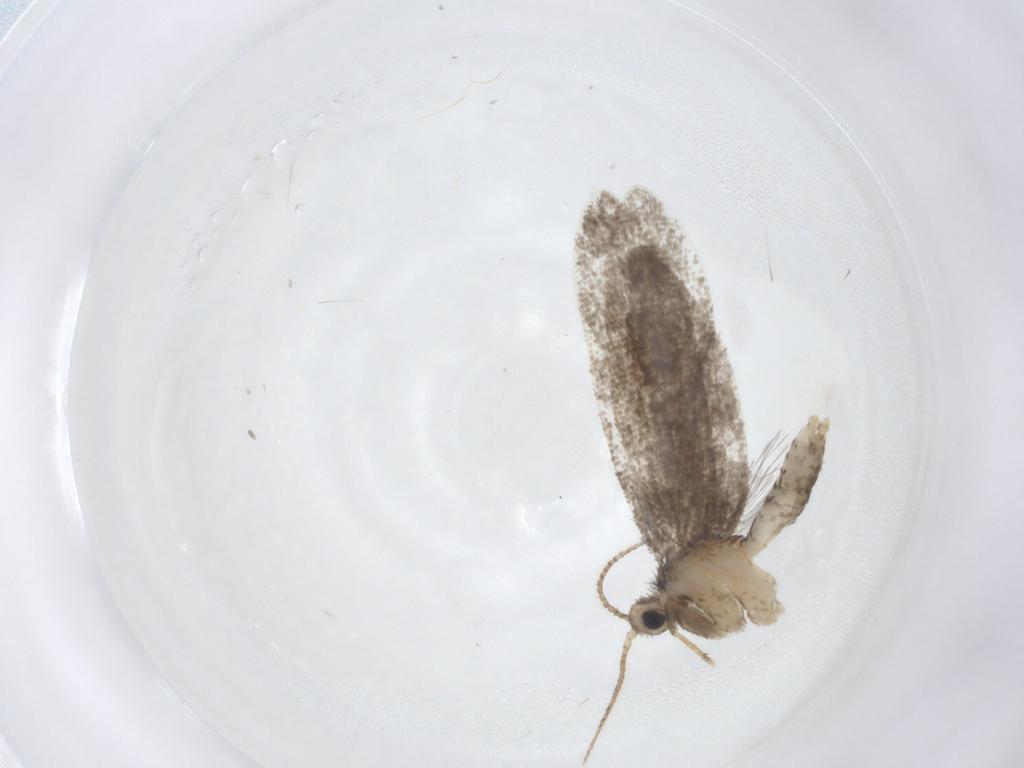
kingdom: Animalia
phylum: Arthropoda
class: Insecta
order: Lepidoptera
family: Psychidae
